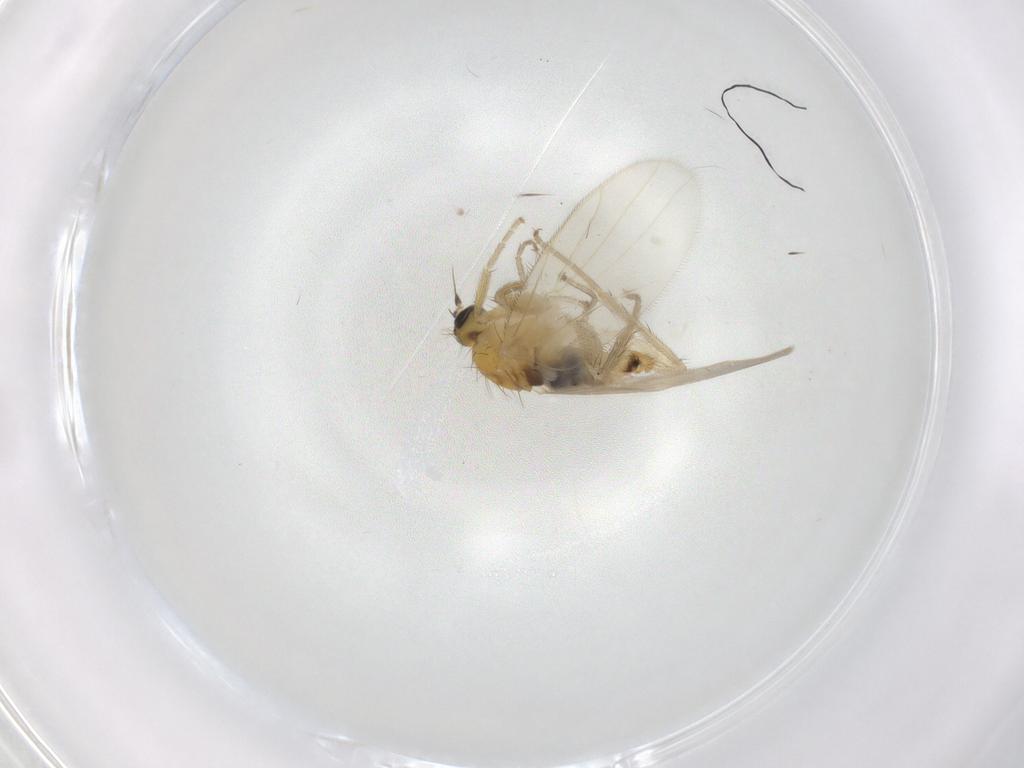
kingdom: Animalia
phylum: Arthropoda
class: Insecta
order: Diptera
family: Hybotidae
